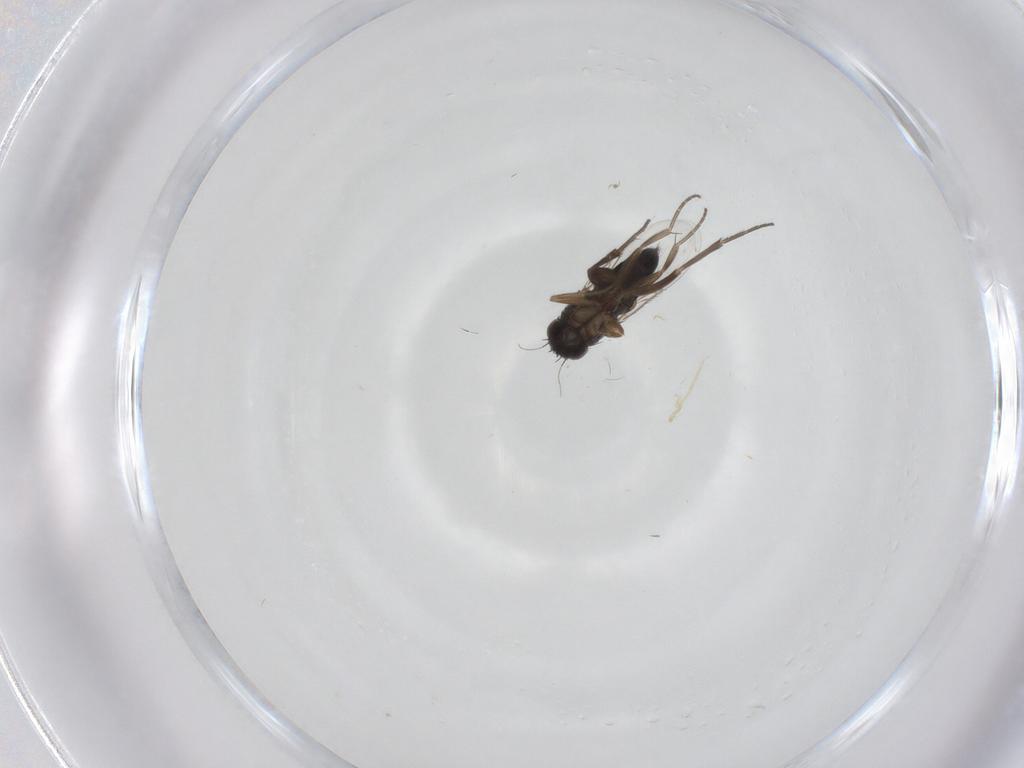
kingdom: Animalia
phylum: Arthropoda
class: Insecta
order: Diptera
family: Phoridae
